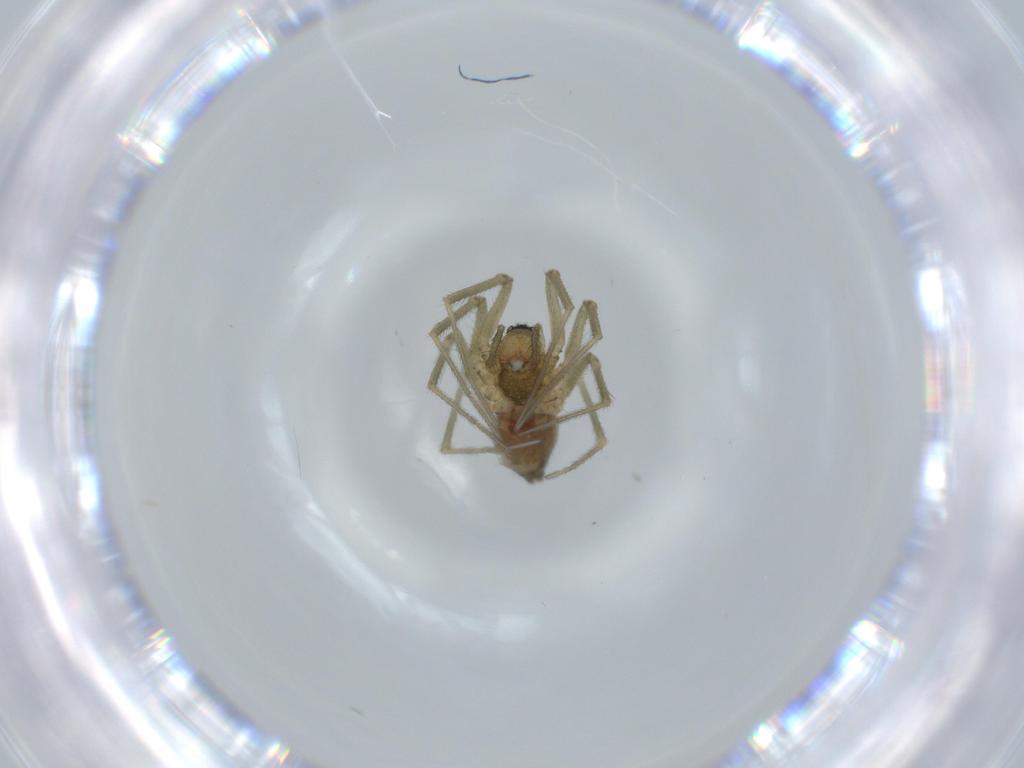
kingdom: Animalia
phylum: Arthropoda
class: Arachnida
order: Araneae
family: Linyphiidae
